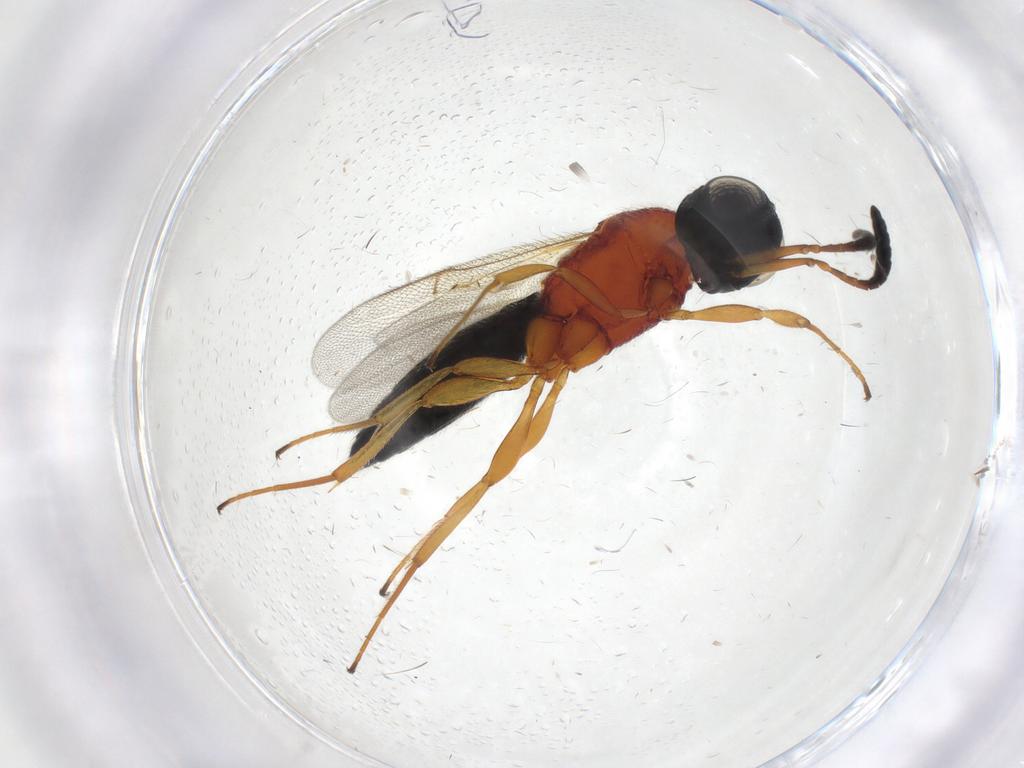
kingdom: Animalia
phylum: Arthropoda
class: Insecta
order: Hymenoptera
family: Scelionidae
